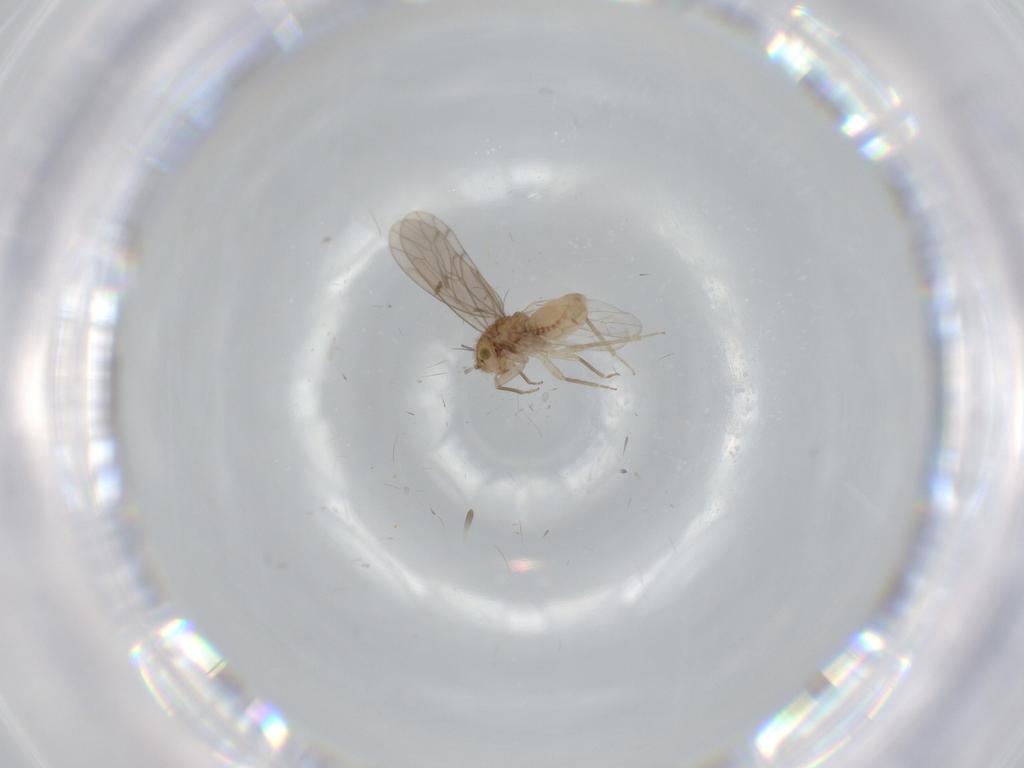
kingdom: Animalia
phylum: Arthropoda
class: Insecta
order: Psocodea
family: Ectopsocidae
